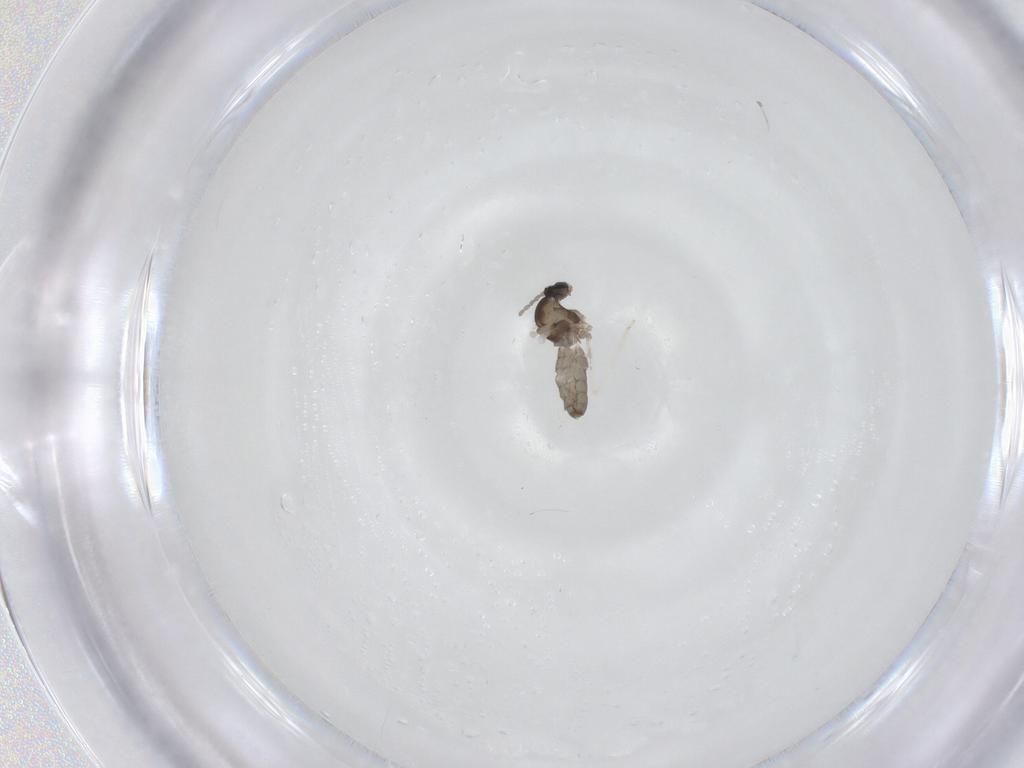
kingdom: Animalia
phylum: Arthropoda
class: Insecta
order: Diptera
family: Cecidomyiidae
